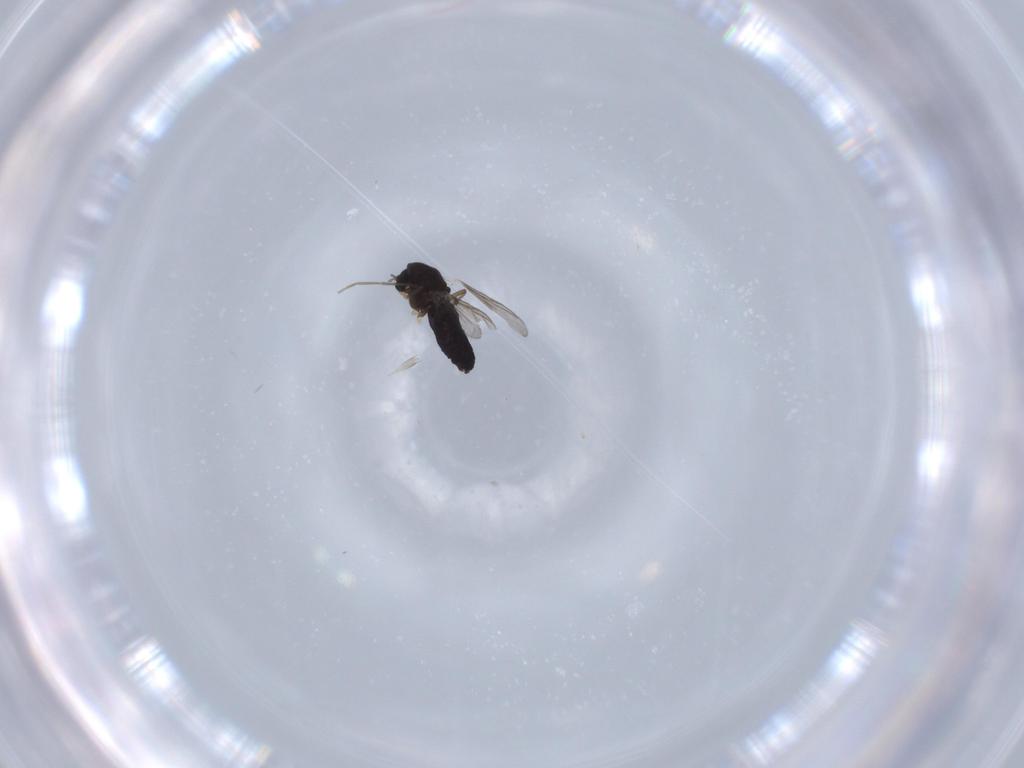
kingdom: Animalia
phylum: Arthropoda
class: Insecta
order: Diptera
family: Chironomidae
